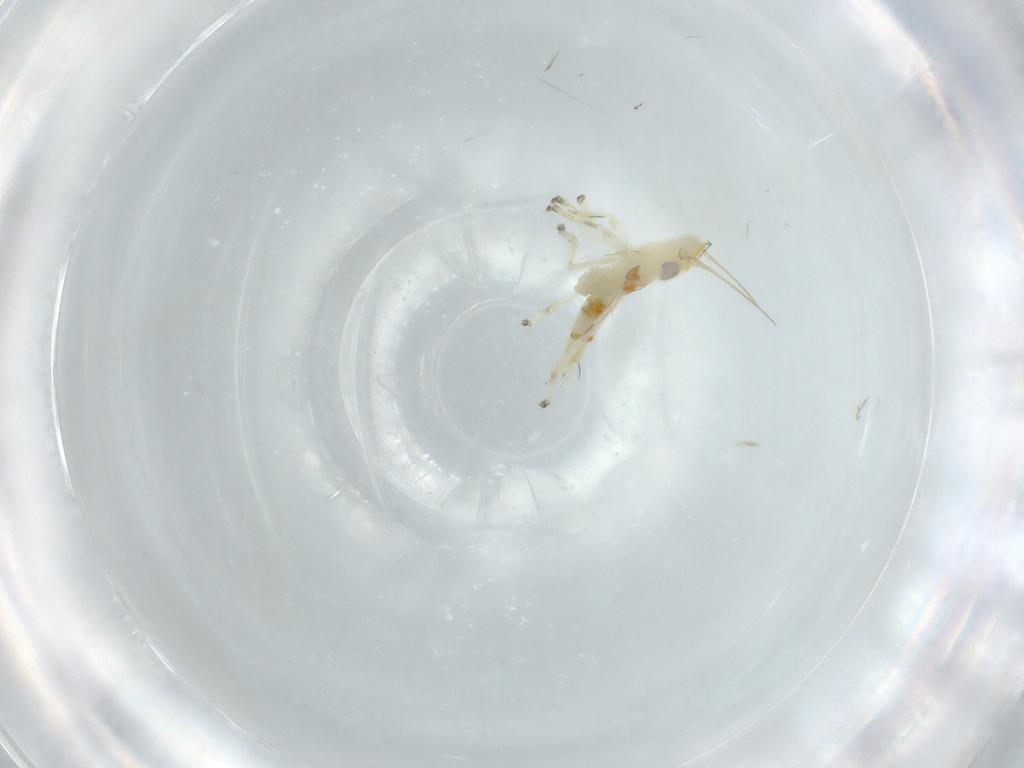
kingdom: Animalia
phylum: Arthropoda
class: Insecta
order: Hemiptera
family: Cicadellidae
